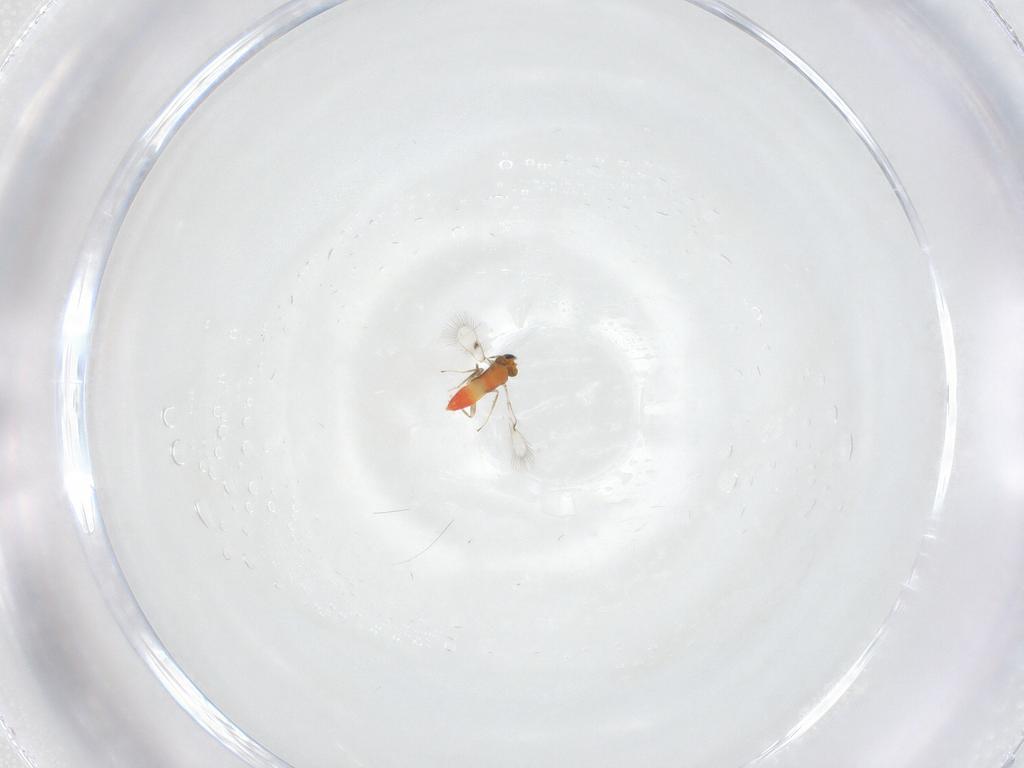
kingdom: Animalia
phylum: Arthropoda
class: Insecta
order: Hymenoptera
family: Trichogrammatidae
